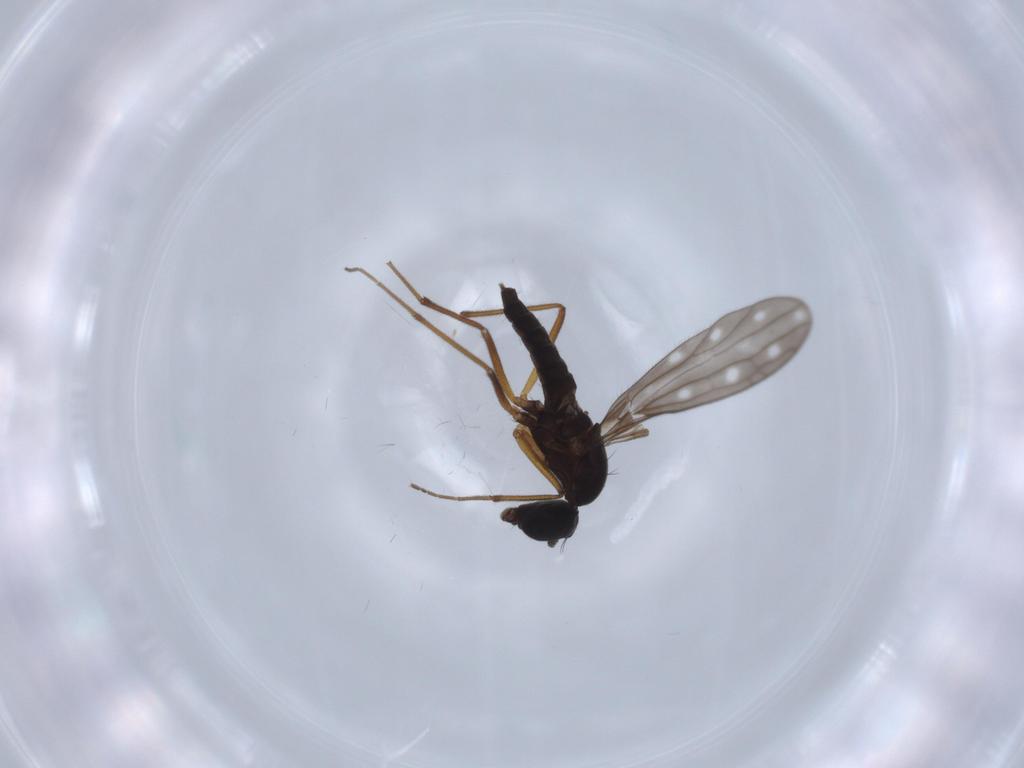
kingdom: Animalia
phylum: Arthropoda
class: Insecta
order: Diptera
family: Empididae
